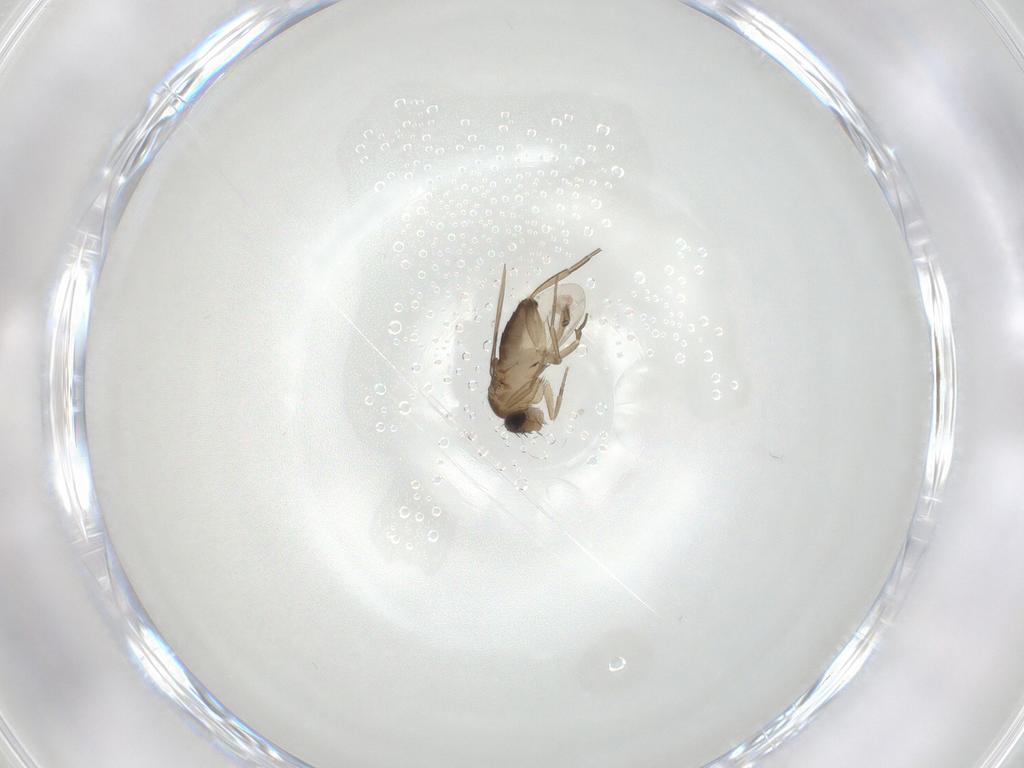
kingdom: Animalia
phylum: Arthropoda
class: Insecta
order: Diptera
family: Phoridae
